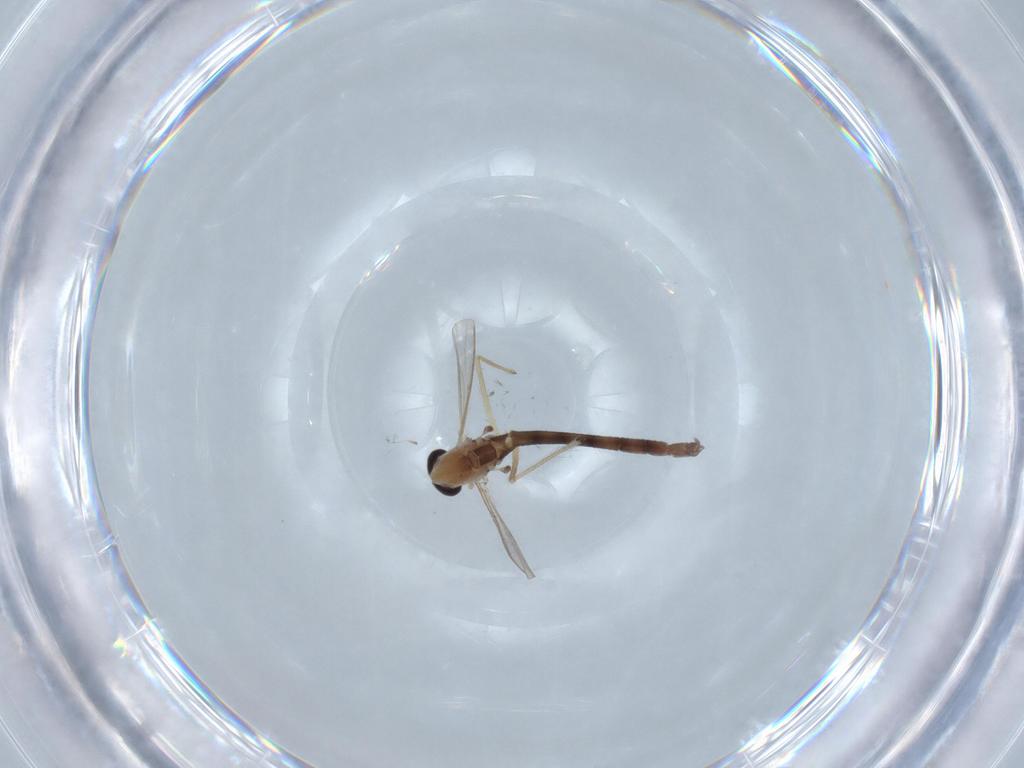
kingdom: Animalia
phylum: Arthropoda
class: Insecta
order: Diptera
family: Chironomidae
